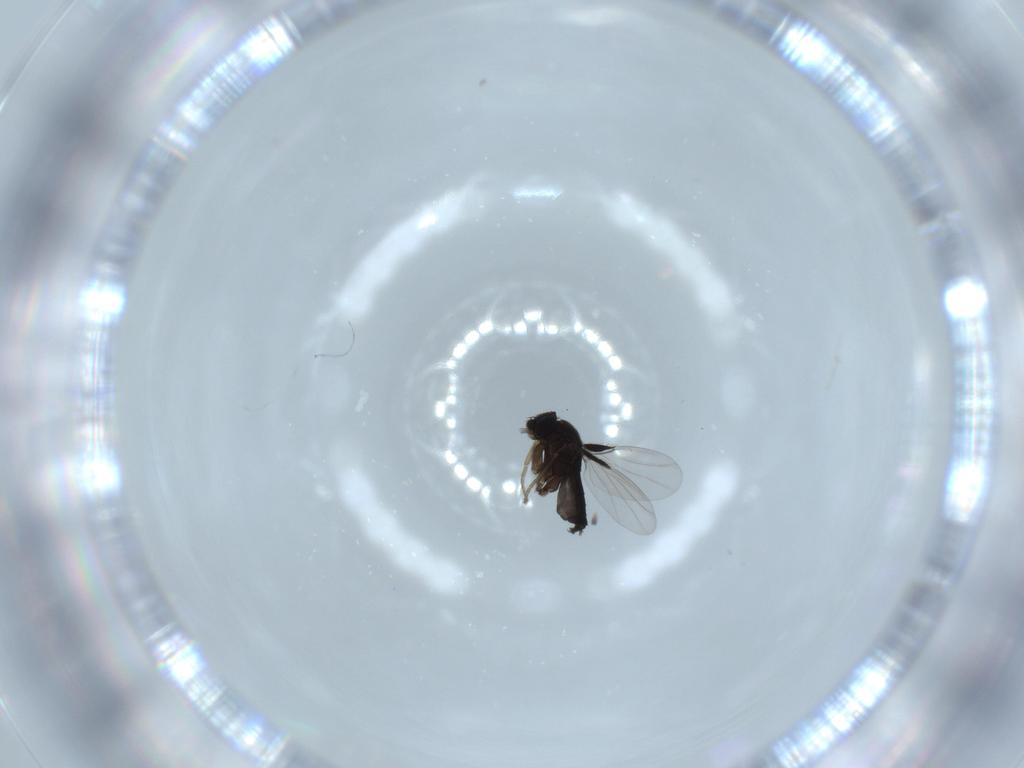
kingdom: Animalia
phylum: Arthropoda
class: Insecta
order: Diptera
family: Phoridae
